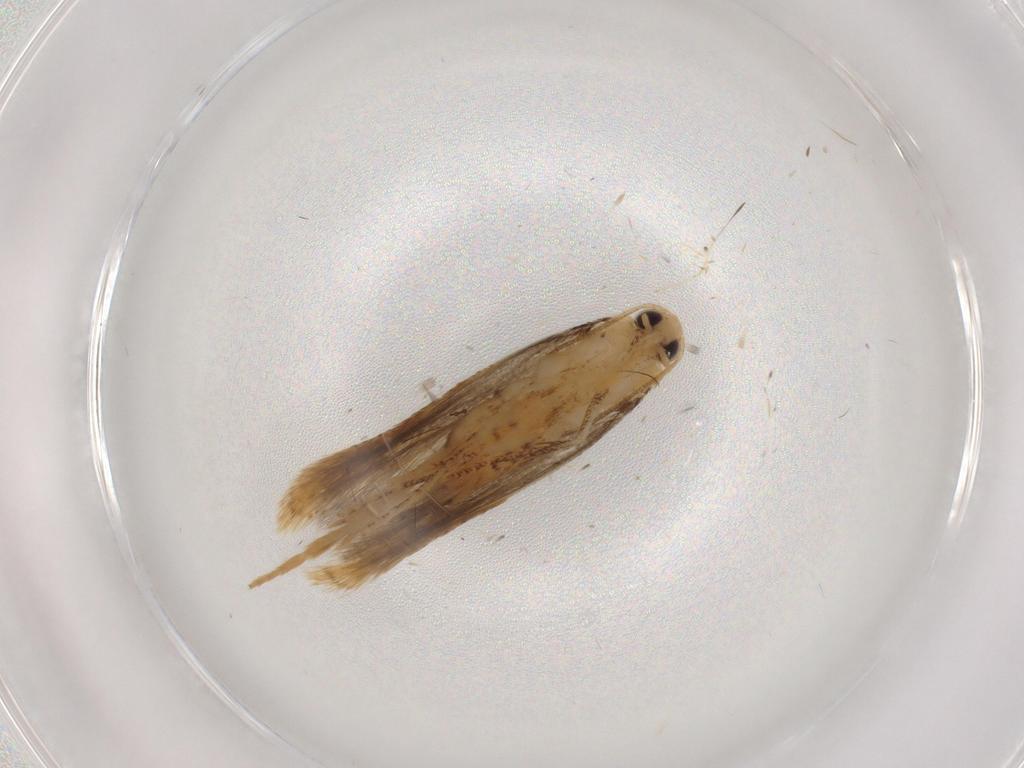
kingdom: Animalia
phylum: Arthropoda
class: Insecta
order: Lepidoptera
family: Tischeriidae
